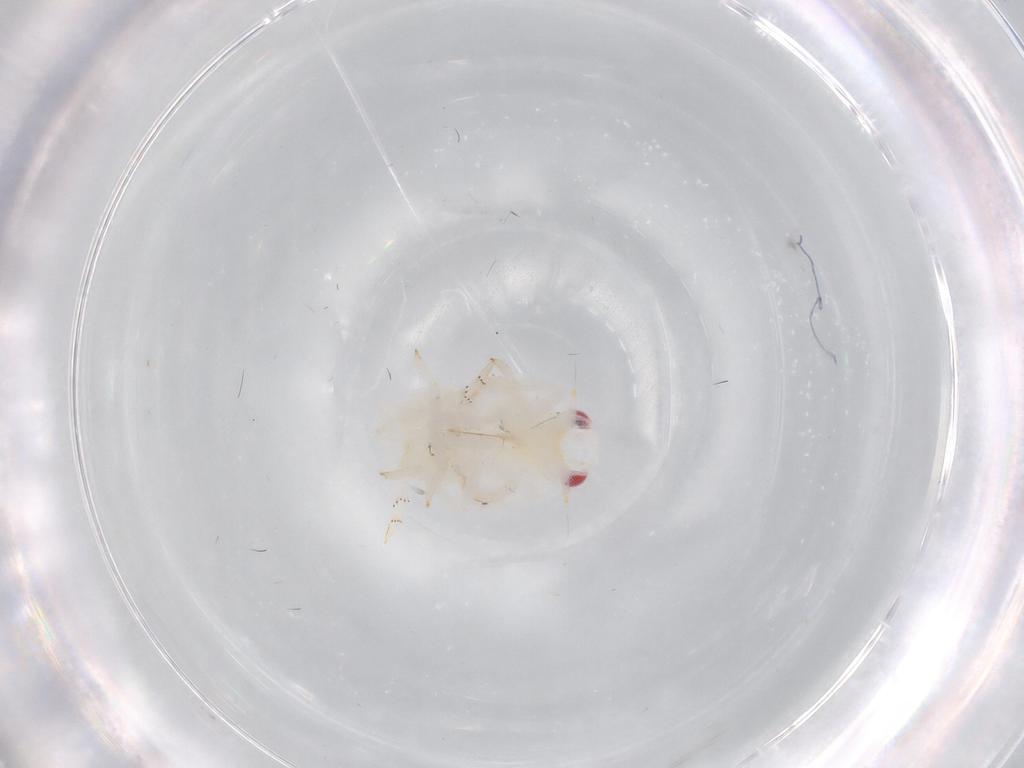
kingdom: Animalia
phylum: Arthropoda
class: Insecta
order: Hemiptera
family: Flatidae
